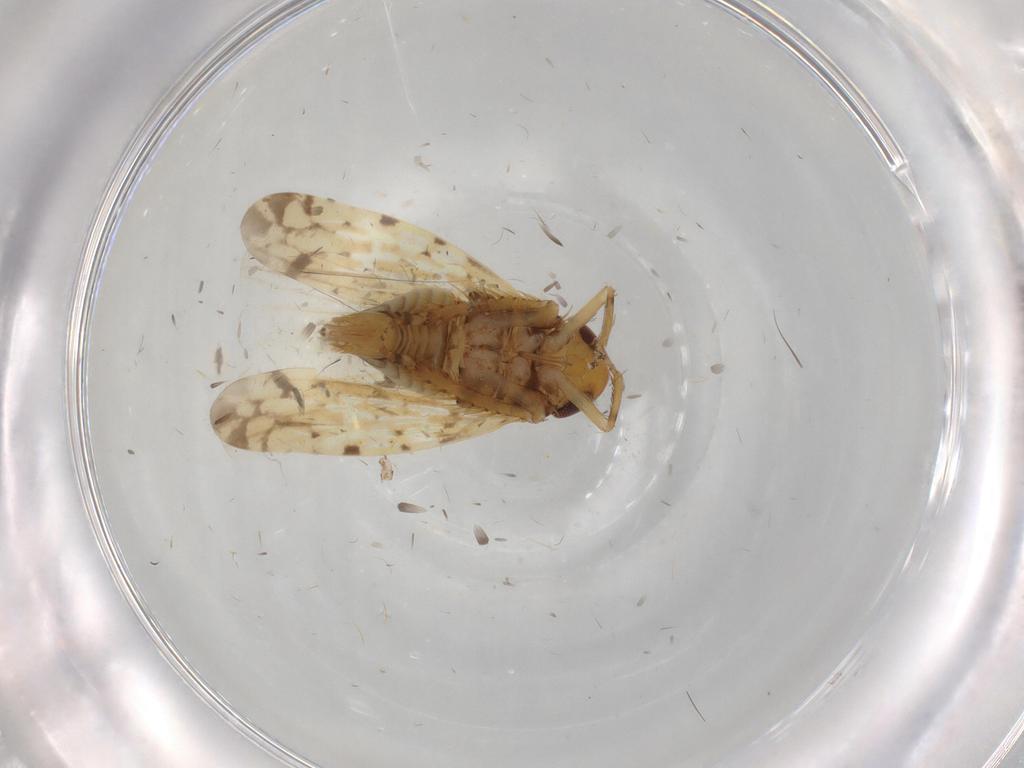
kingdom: Animalia
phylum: Arthropoda
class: Insecta
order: Hemiptera
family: Cicadellidae
